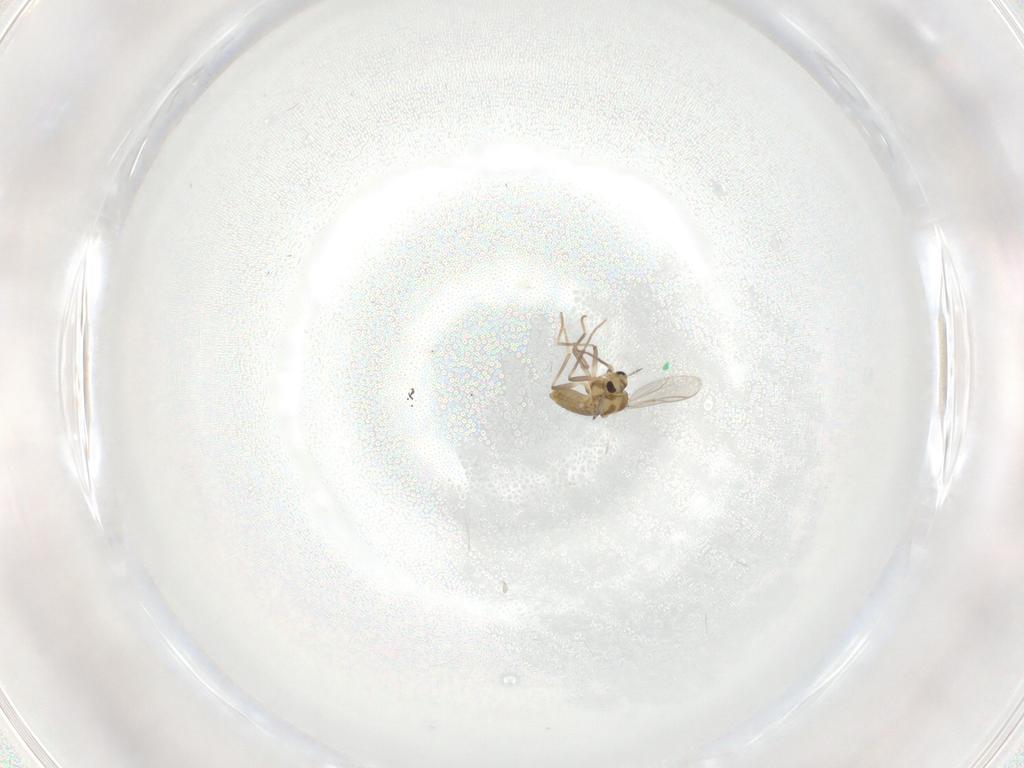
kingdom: Animalia
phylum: Arthropoda
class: Insecta
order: Diptera
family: Chironomidae
